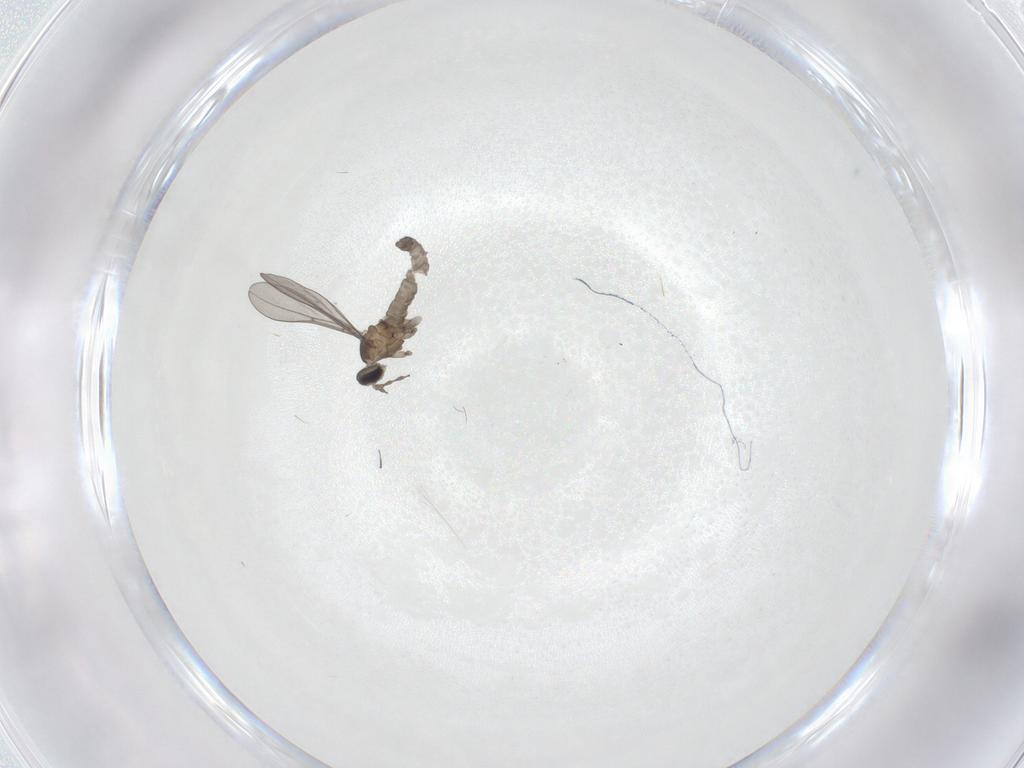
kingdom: Animalia
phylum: Arthropoda
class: Insecta
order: Diptera
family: Cecidomyiidae
